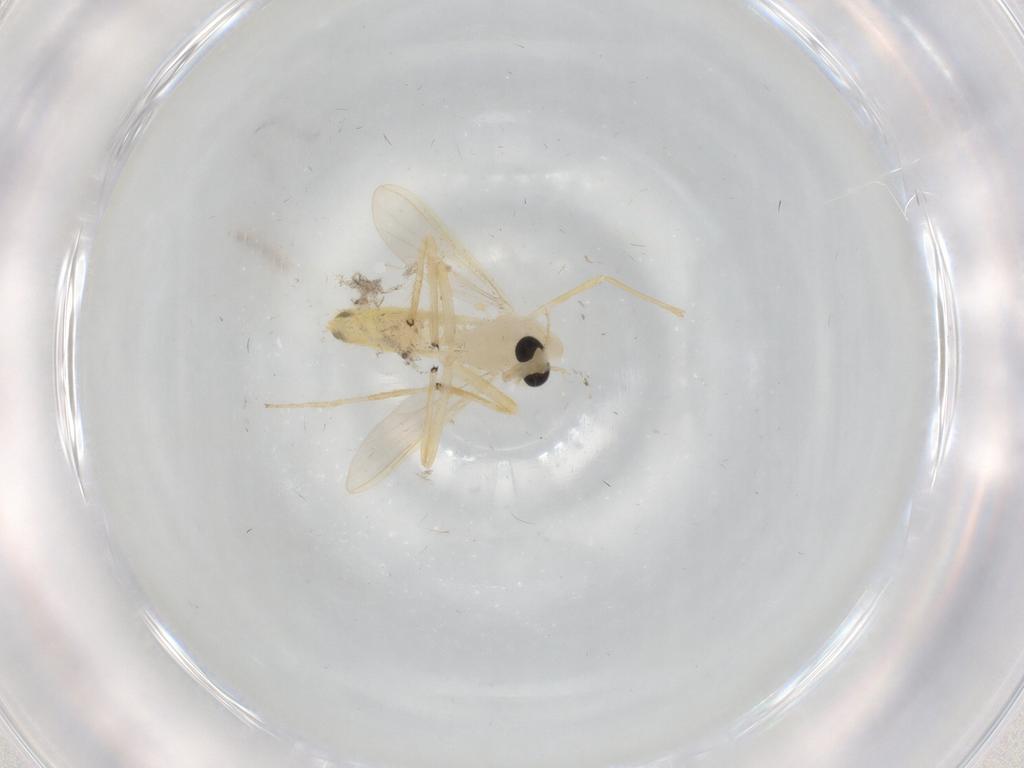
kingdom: Animalia
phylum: Arthropoda
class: Insecta
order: Diptera
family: Chironomidae
